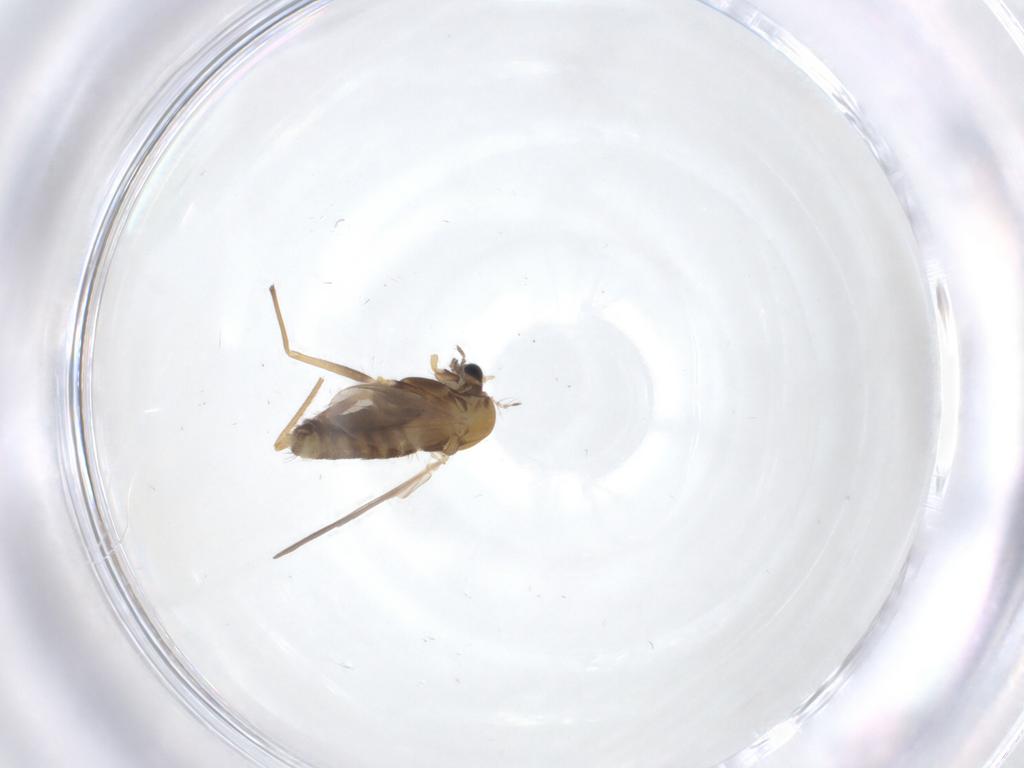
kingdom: Animalia
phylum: Arthropoda
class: Insecta
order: Diptera
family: Chironomidae
